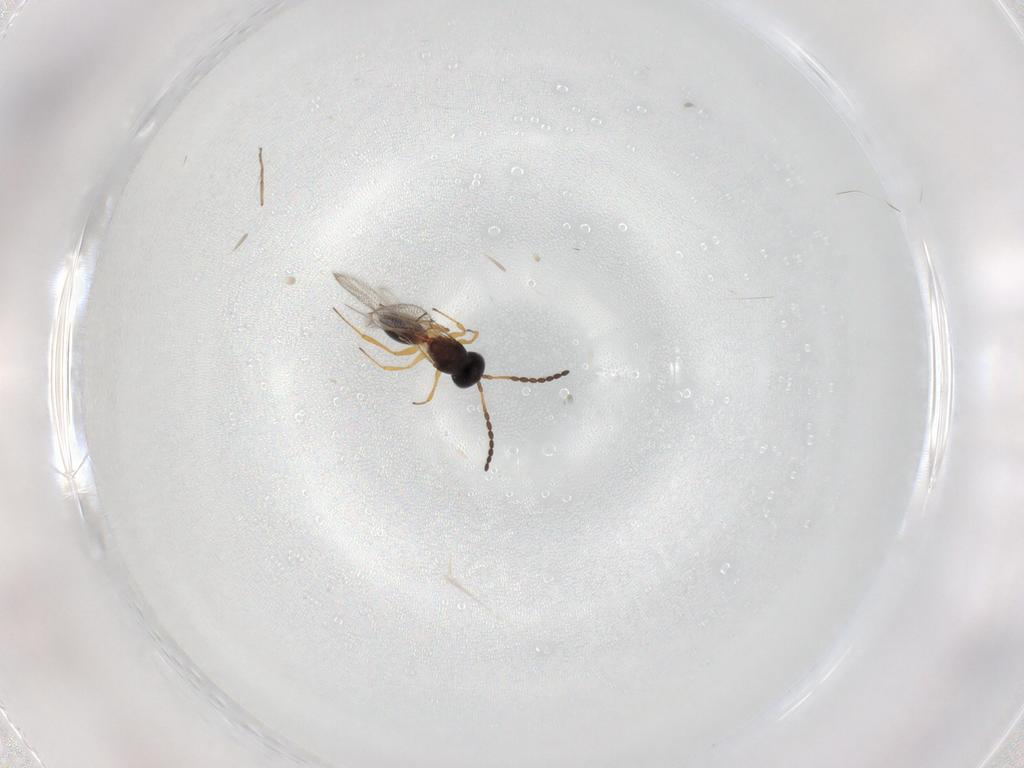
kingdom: Animalia
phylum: Arthropoda
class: Insecta
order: Hymenoptera
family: Figitidae
